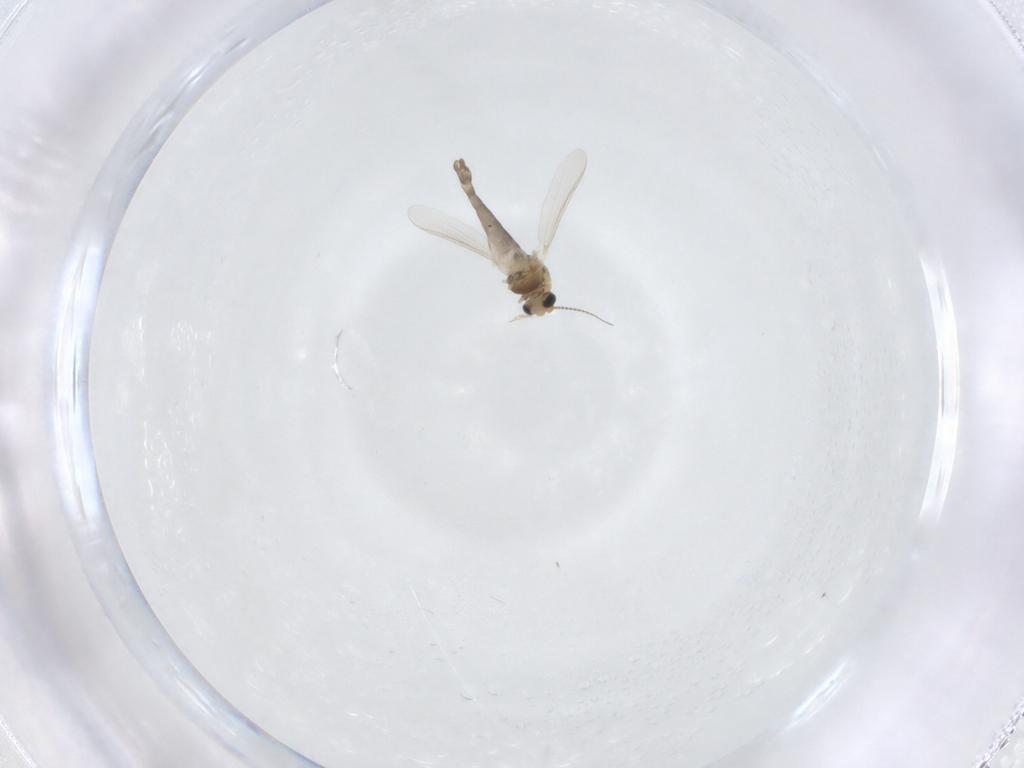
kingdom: Animalia
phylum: Arthropoda
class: Insecta
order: Diptera
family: Chironomidae
